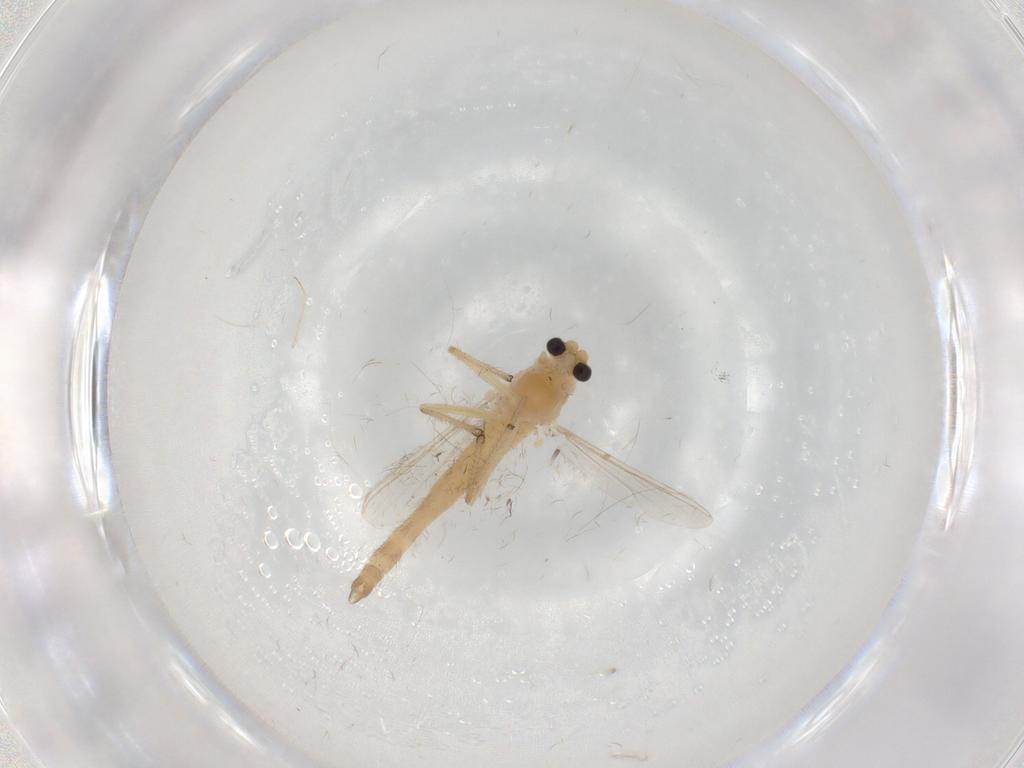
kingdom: Animalia
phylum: Arthropoda
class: Insecta
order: Diptera
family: Chironomidae
